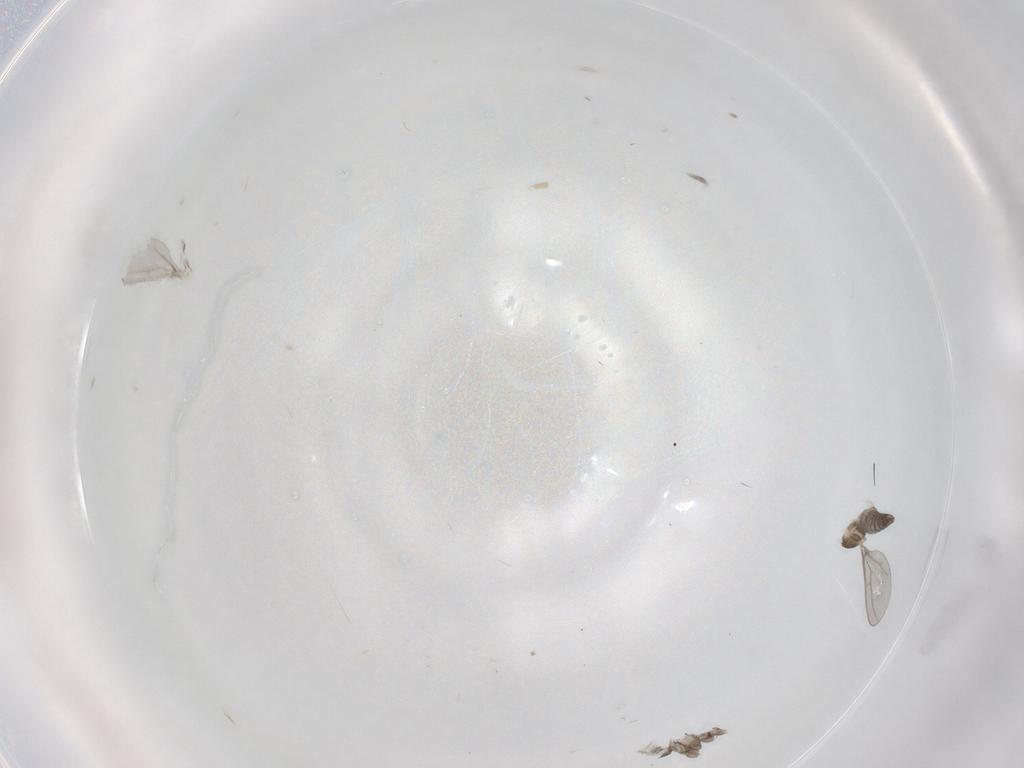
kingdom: Animalia
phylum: Arthropoda
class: Insecta
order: Diptera
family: Cecidomyiidae
